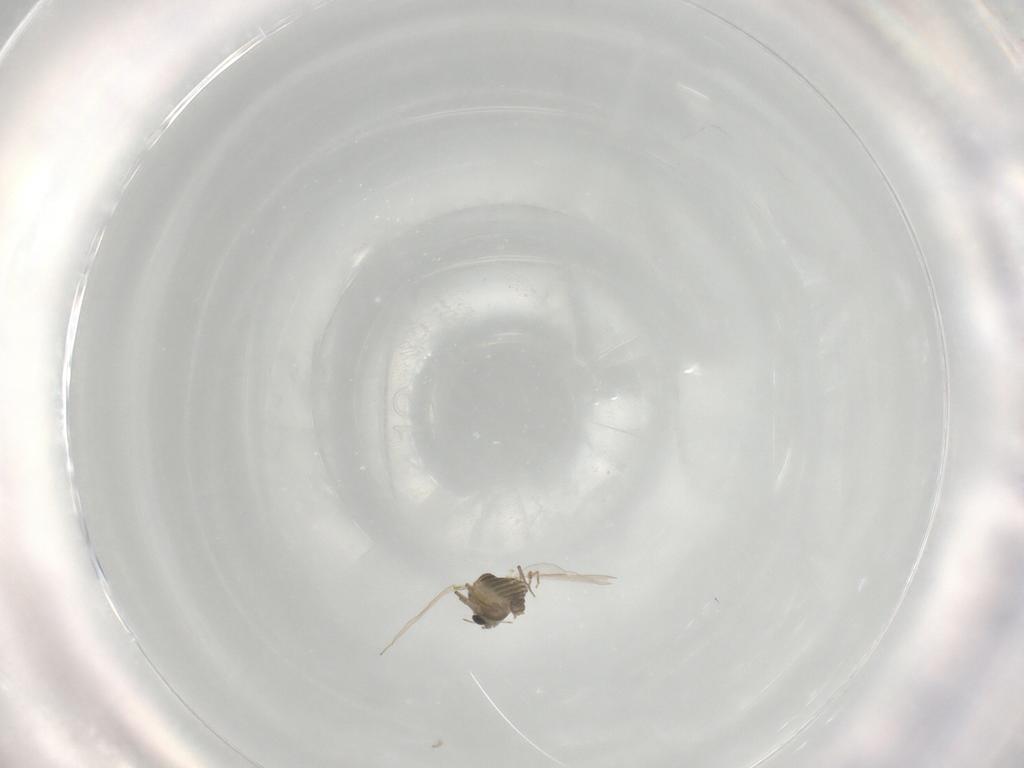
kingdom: Animalia
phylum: Arthropoda
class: Insecta
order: Diptera
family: Chironomidae
